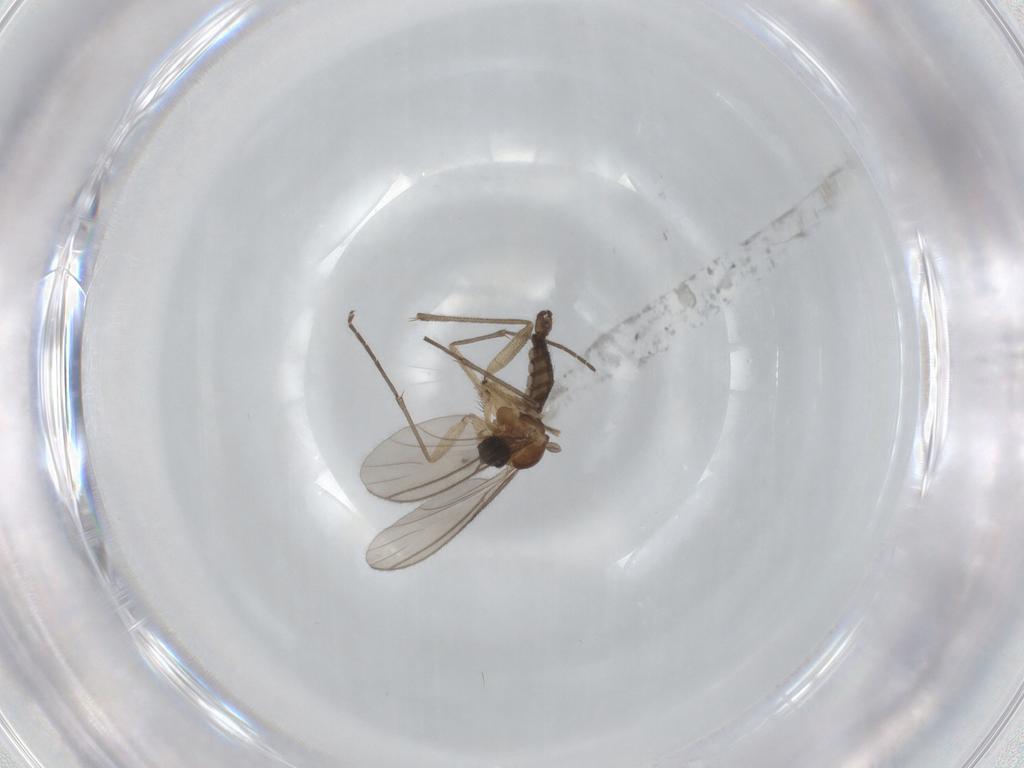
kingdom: Animalia
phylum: Arthropoda
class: Insecta
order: Diptera
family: Sciaridae
